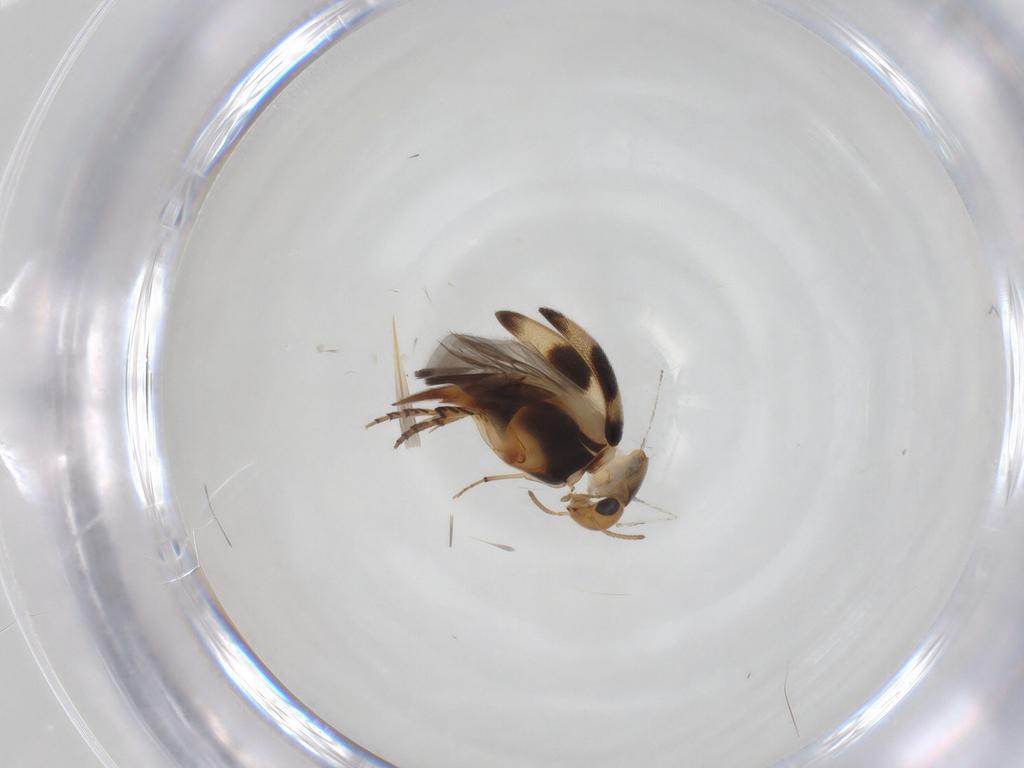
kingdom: Animalia
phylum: Arthropoda
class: Insecta
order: Coleoptera
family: Mordellidae
